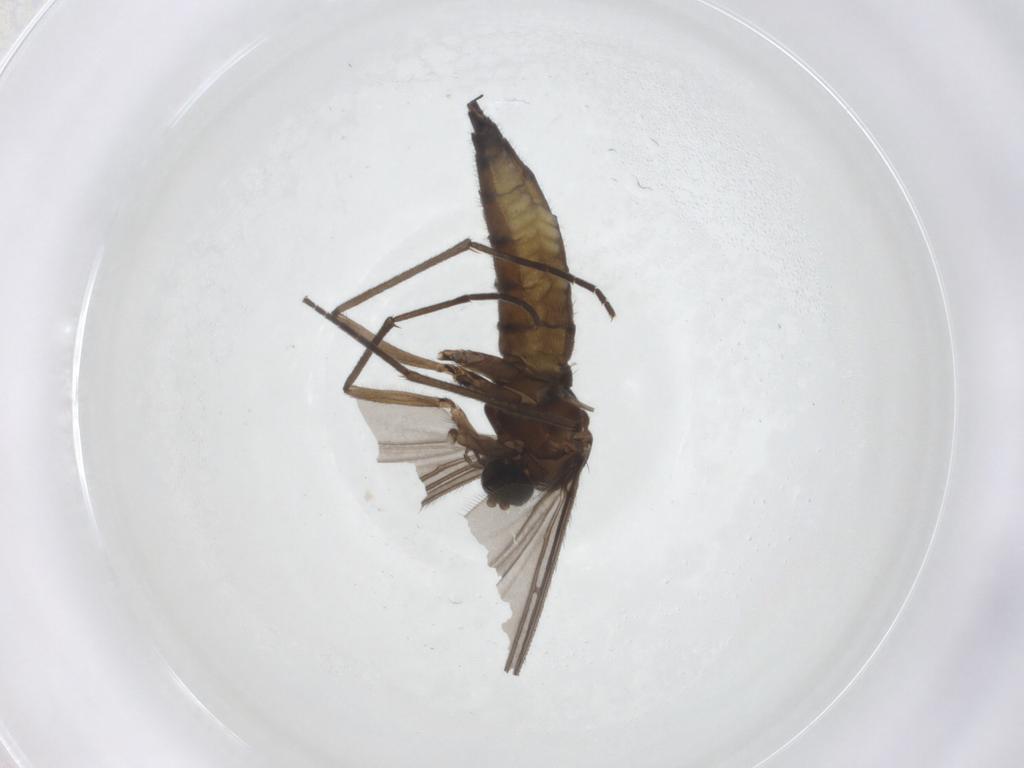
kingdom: Animalia
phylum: Arthropoda
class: Insecta
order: Diptera
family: Sciaridae
